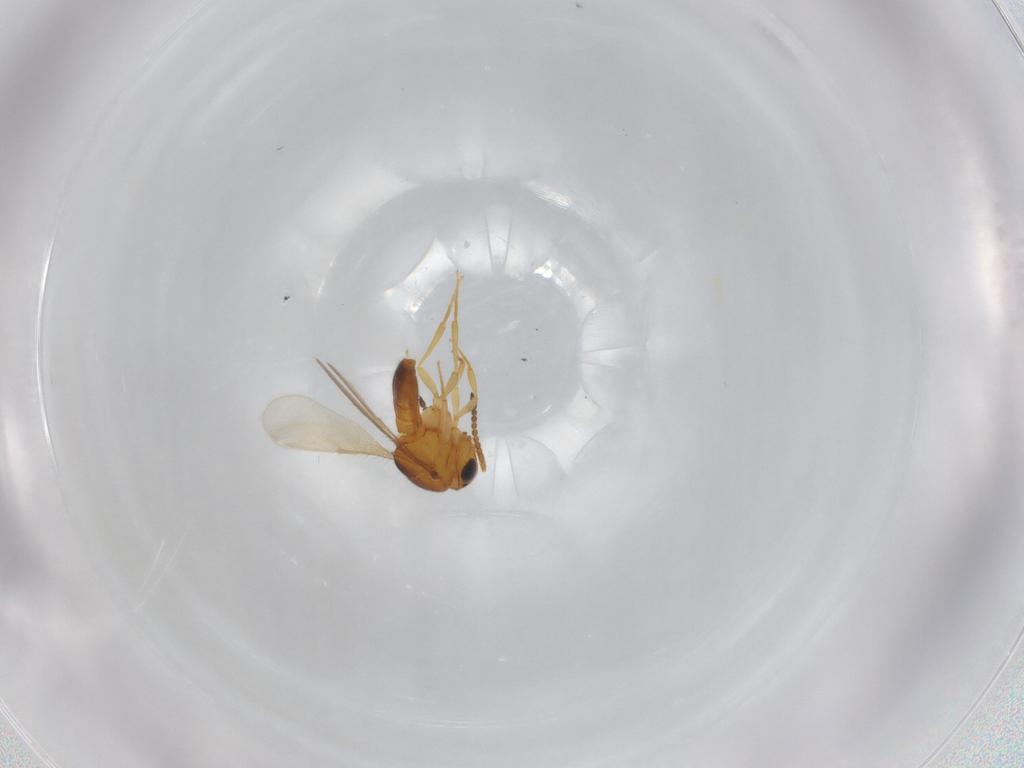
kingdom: Animalia
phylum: Arthropoda
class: Insecta
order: Hymenoptera
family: Scelionidae
